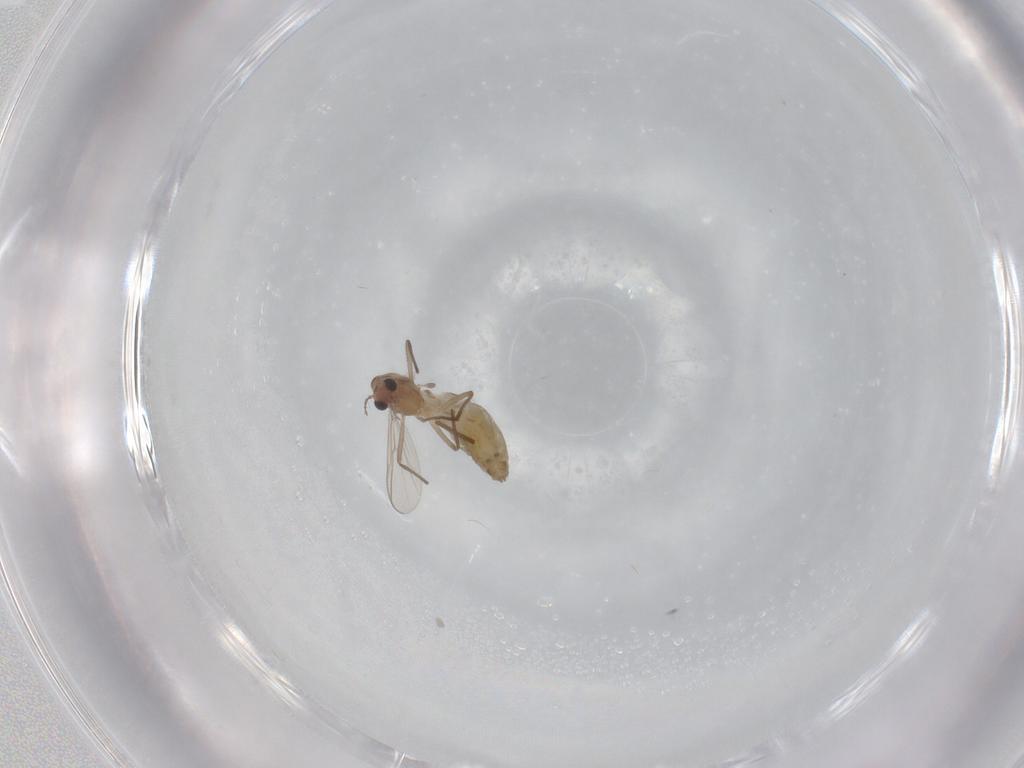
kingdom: Animalia
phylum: Arthropoda
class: Insecta
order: Diptera
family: Chironomidae
